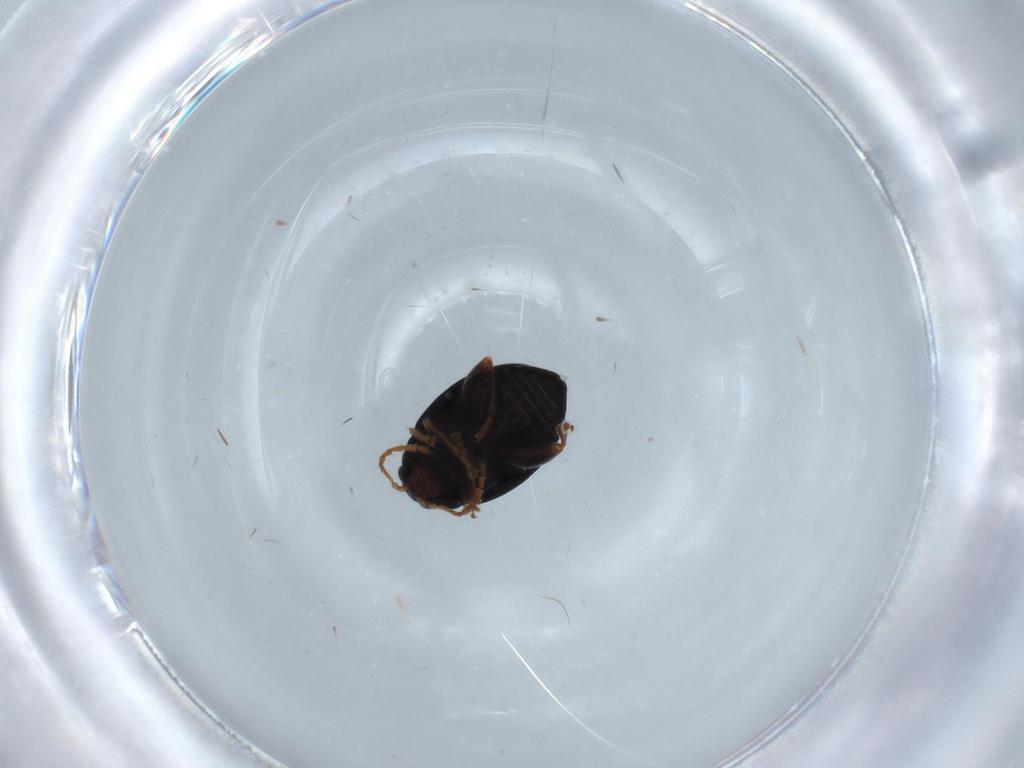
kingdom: Animalia
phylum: Arthropoda
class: Insecta
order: Coleoptera
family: Chrysomelidae
